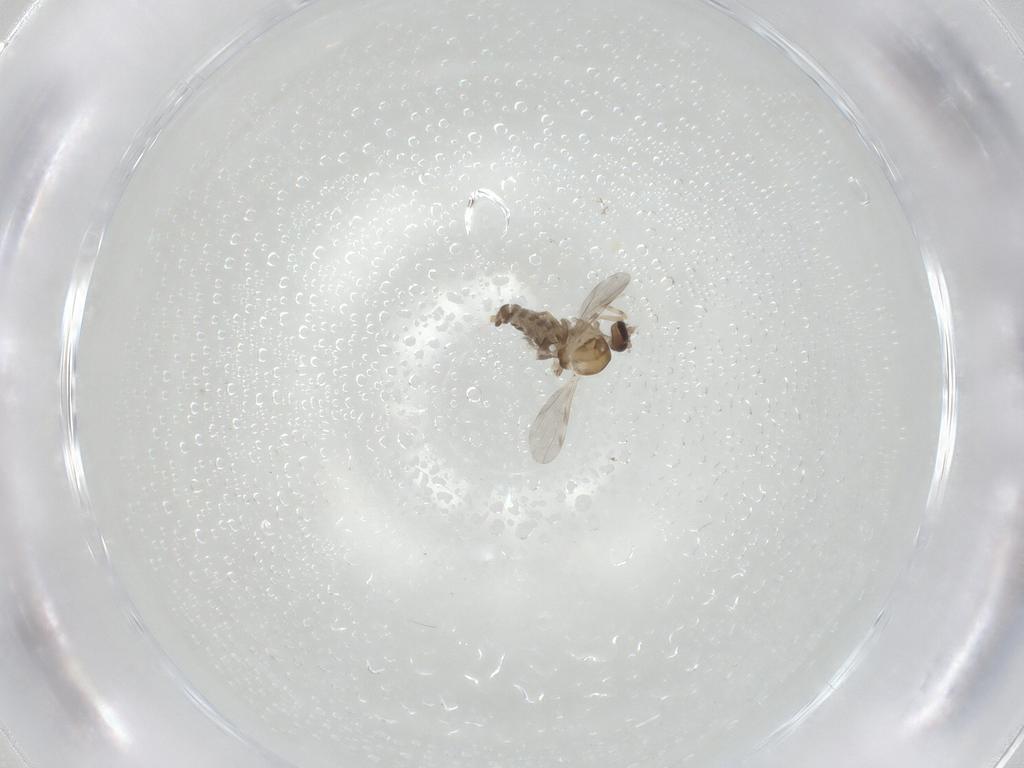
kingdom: Animalia
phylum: Arthropoda
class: Insecta
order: Diptera
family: Ceratopogonidae
